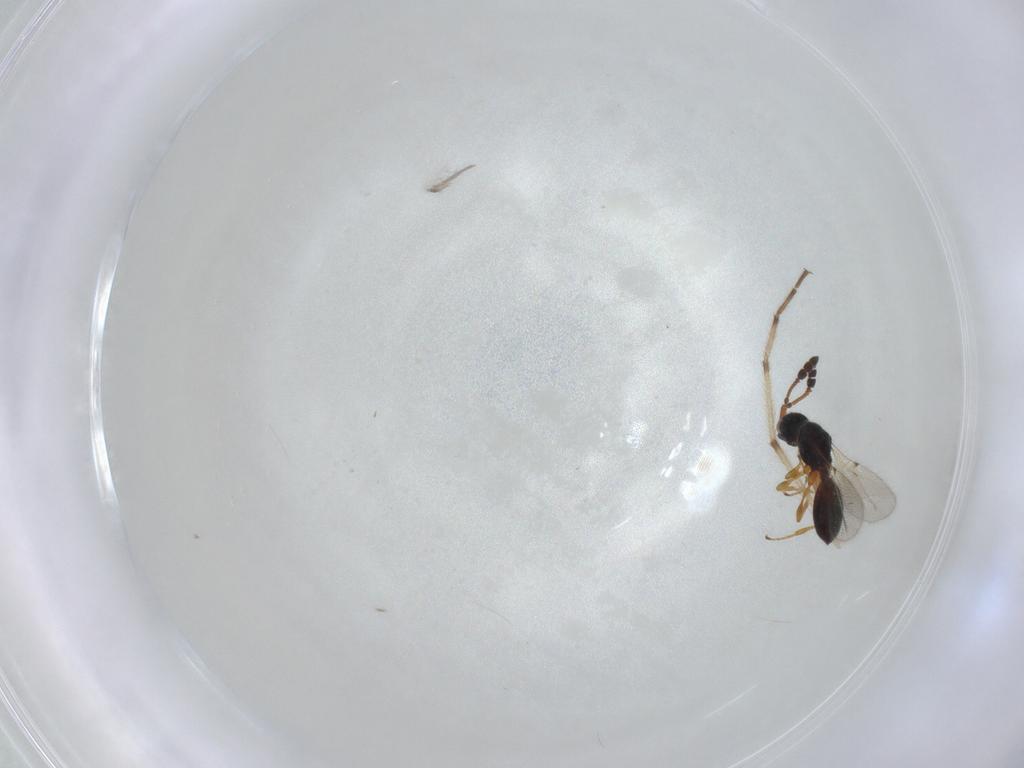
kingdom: Animalia
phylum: Arthropoda
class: Insecta
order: Hymenoptera
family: Diapriidae
